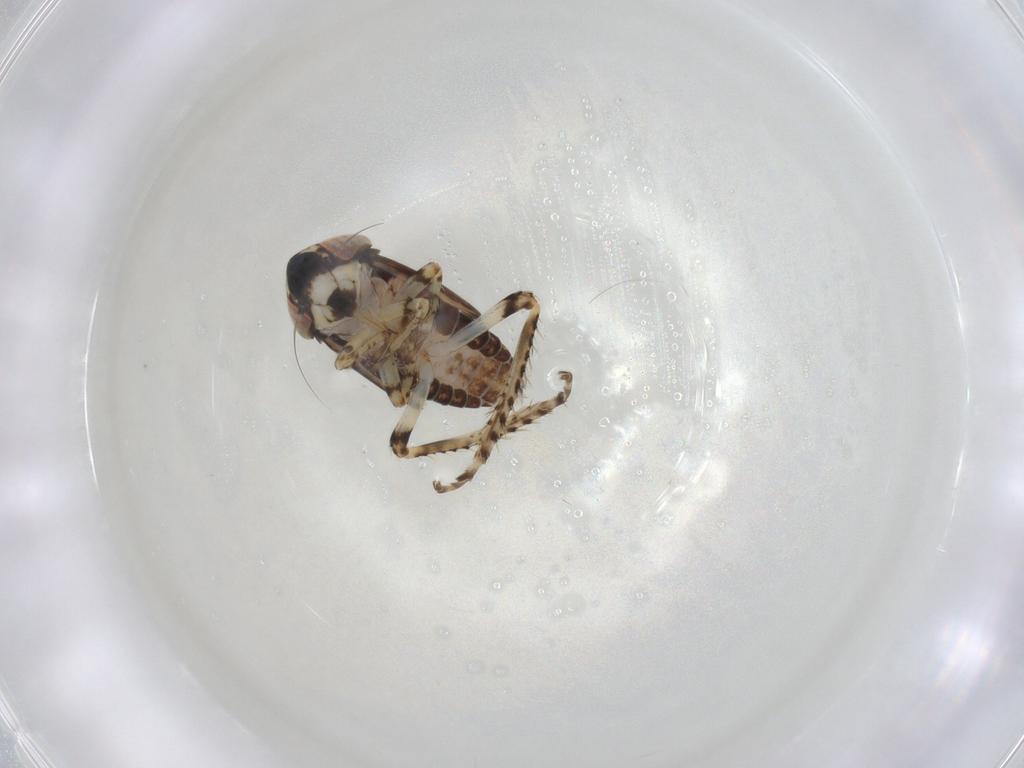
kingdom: Animalia
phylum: Arthropoda
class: Insecta
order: Hemiptera
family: Cicadellidae
